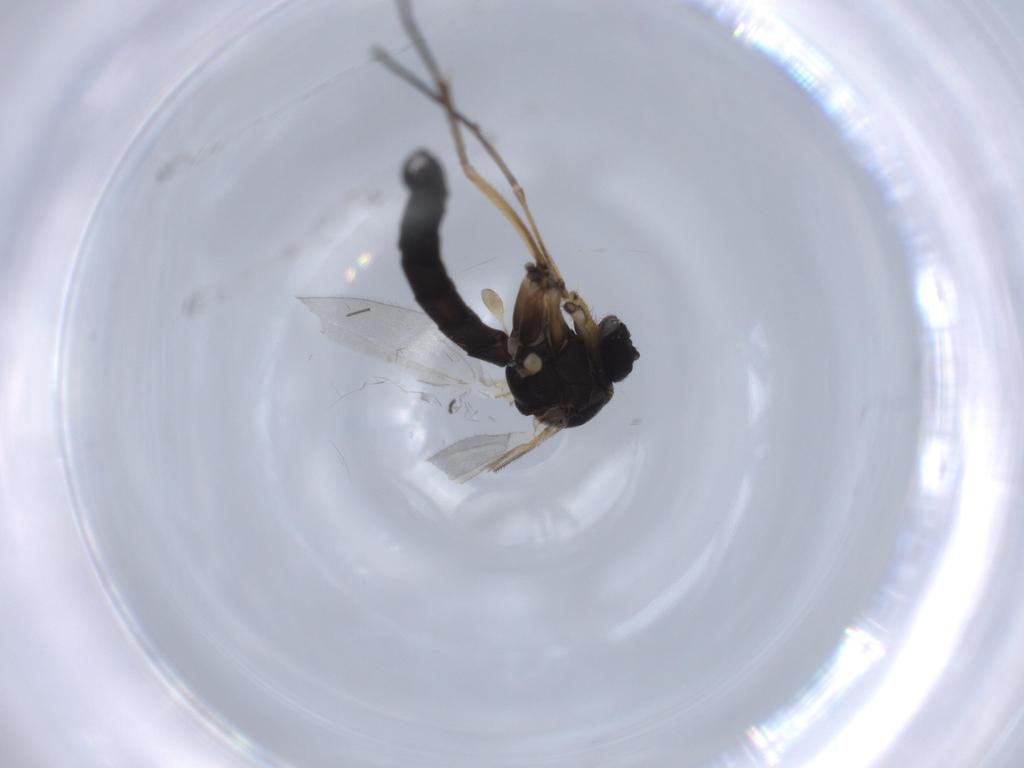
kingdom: Animalia
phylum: Arthropoda
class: Insecta
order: Diptera
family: Mycetophilidae
